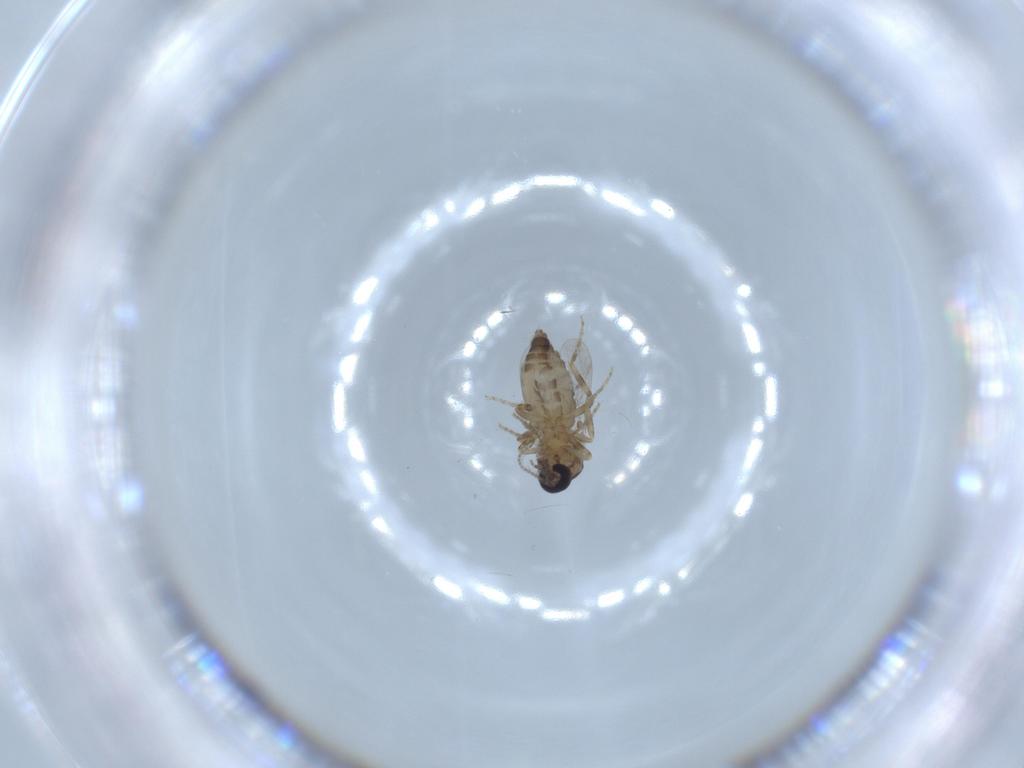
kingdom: Animalia
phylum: Arthropoda
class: Insecta
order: Diptera
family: Ceratopogonidae
